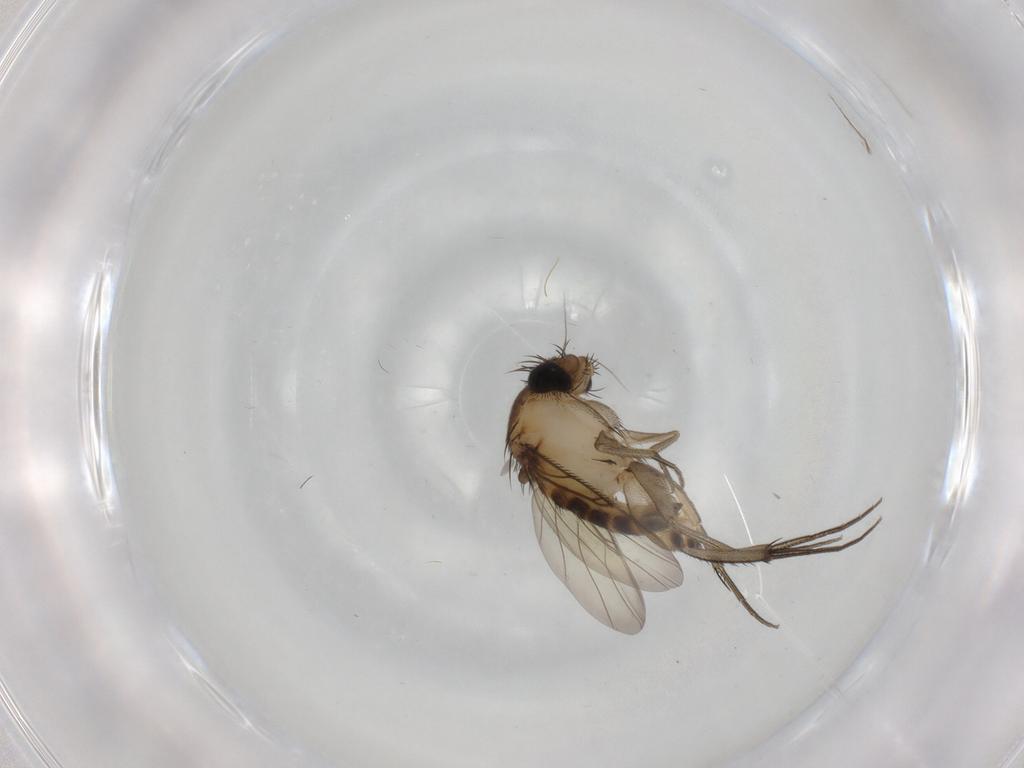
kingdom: Animalia
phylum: Arthropoda
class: Insecta
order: Diptera
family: Phoridae
